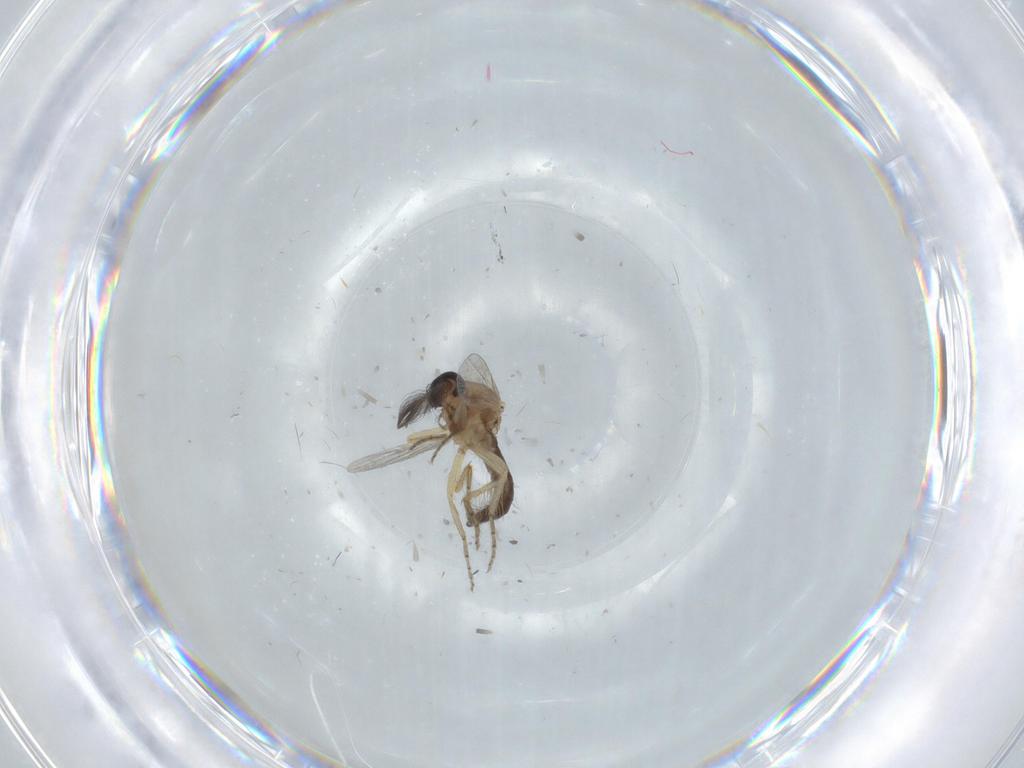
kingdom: Animalia
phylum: Arthropoda
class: Insecta
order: Diptera
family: Ceratopogonidae
